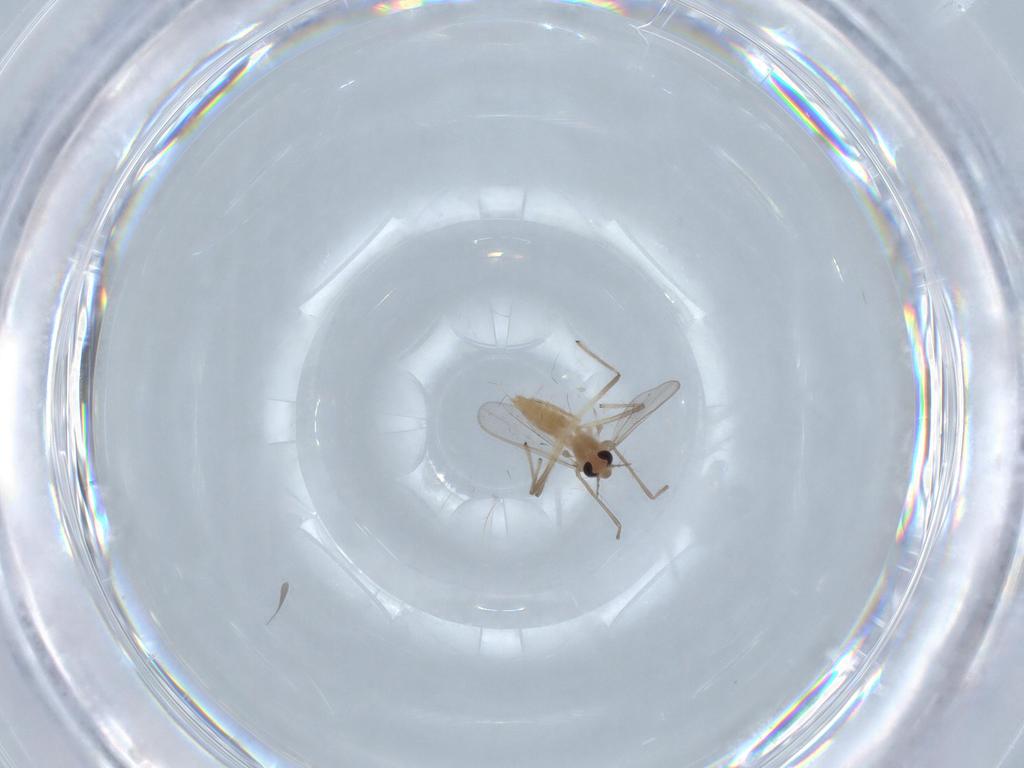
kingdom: Animalia
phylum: Arthropoda
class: Insecta
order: Diptera
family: Chironomidae
